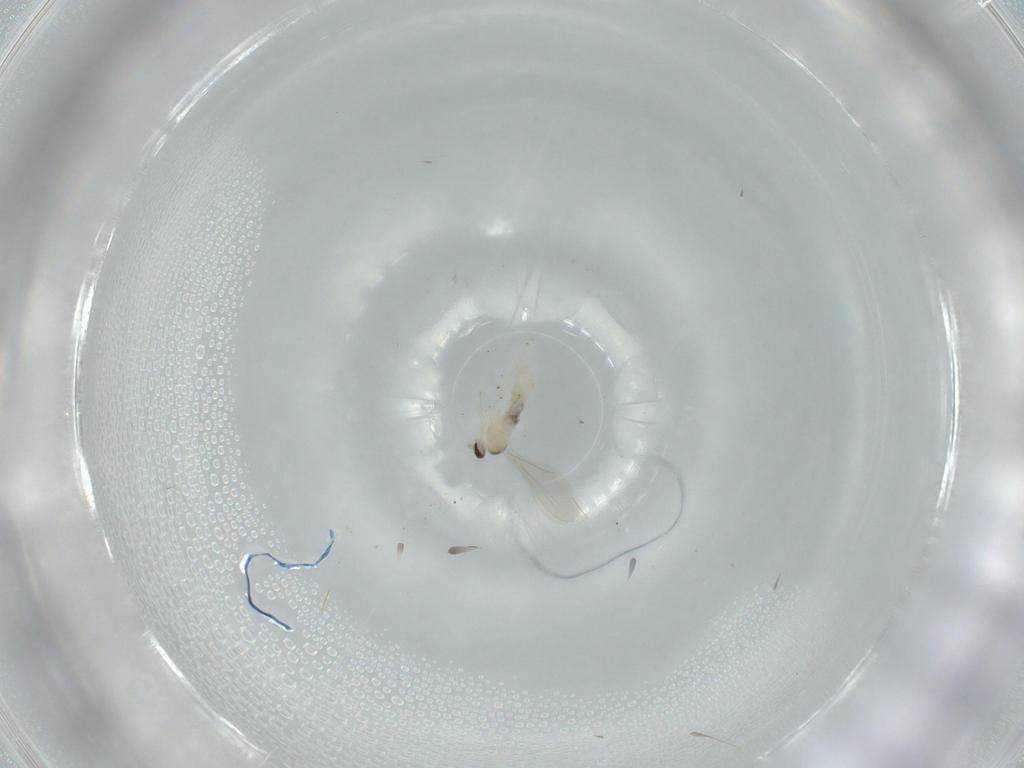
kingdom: Animalia
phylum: Arthropoda
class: Insecta
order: Diptera
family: Cecidomyiidae
